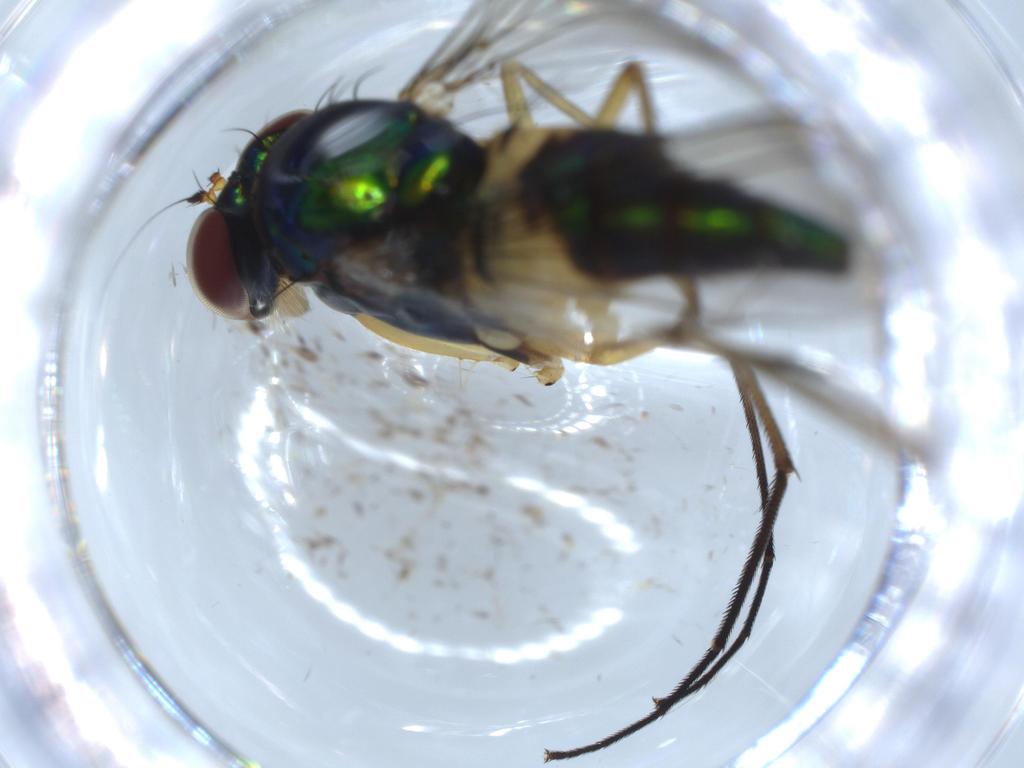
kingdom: Animalia
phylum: Arthropoda
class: Insecta
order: Diptera
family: Dolichopodidae
